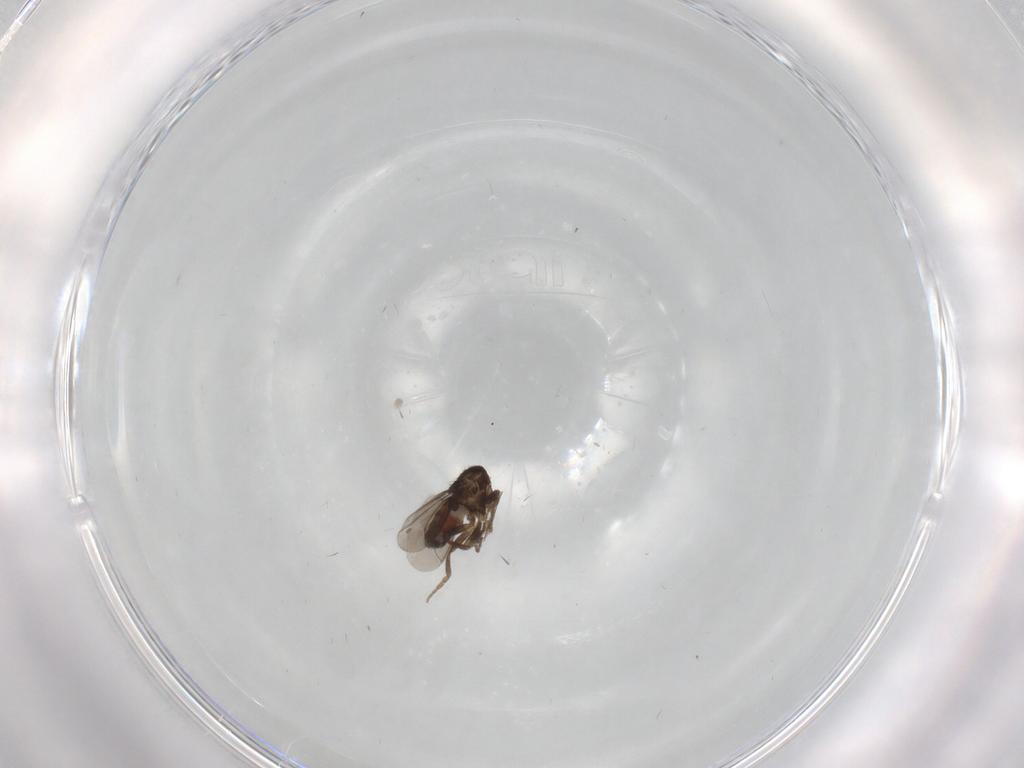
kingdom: Animalia
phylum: Arthropoda
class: Insecta
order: Diptera
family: Sphaeroceridae
